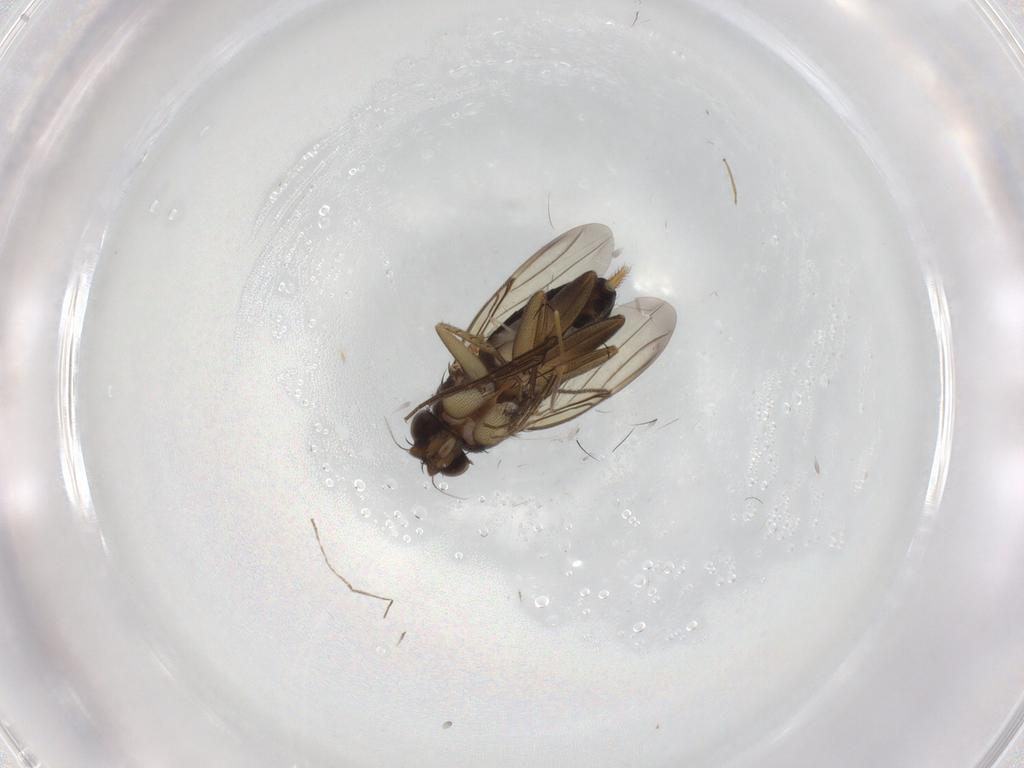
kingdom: Animalia
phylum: Arthropoda
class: Insecta
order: Diptera
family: Phoridae
